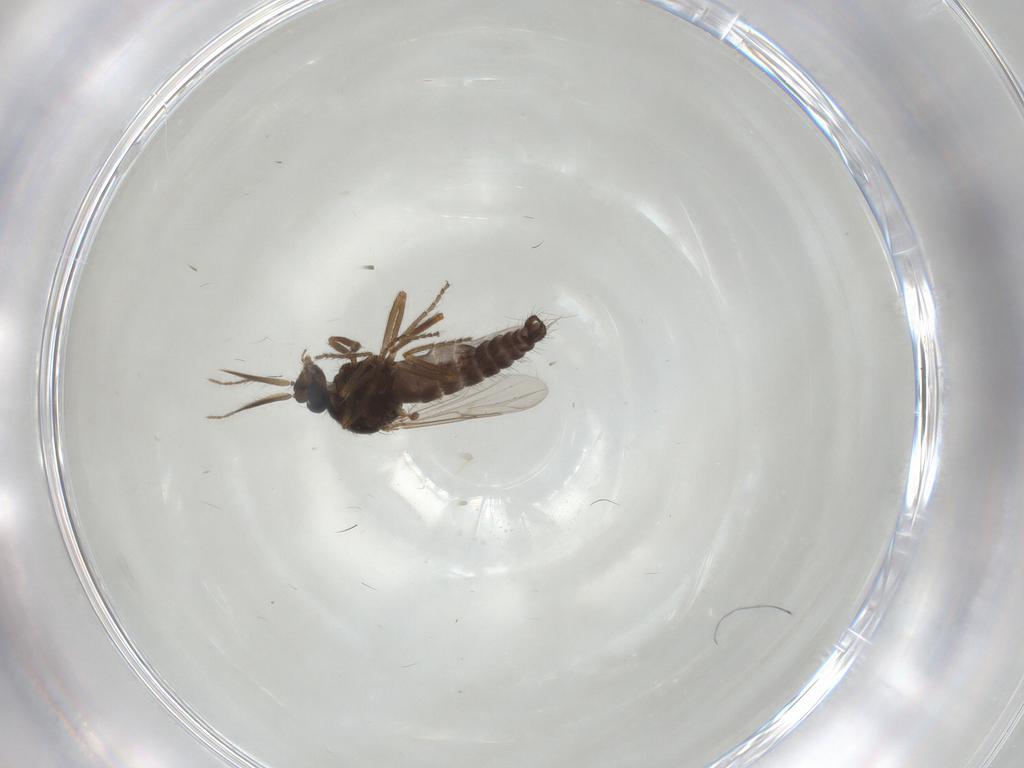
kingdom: Animalia
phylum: Arthropoda
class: Insecta
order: Diptera
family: Ceratopogonidae
